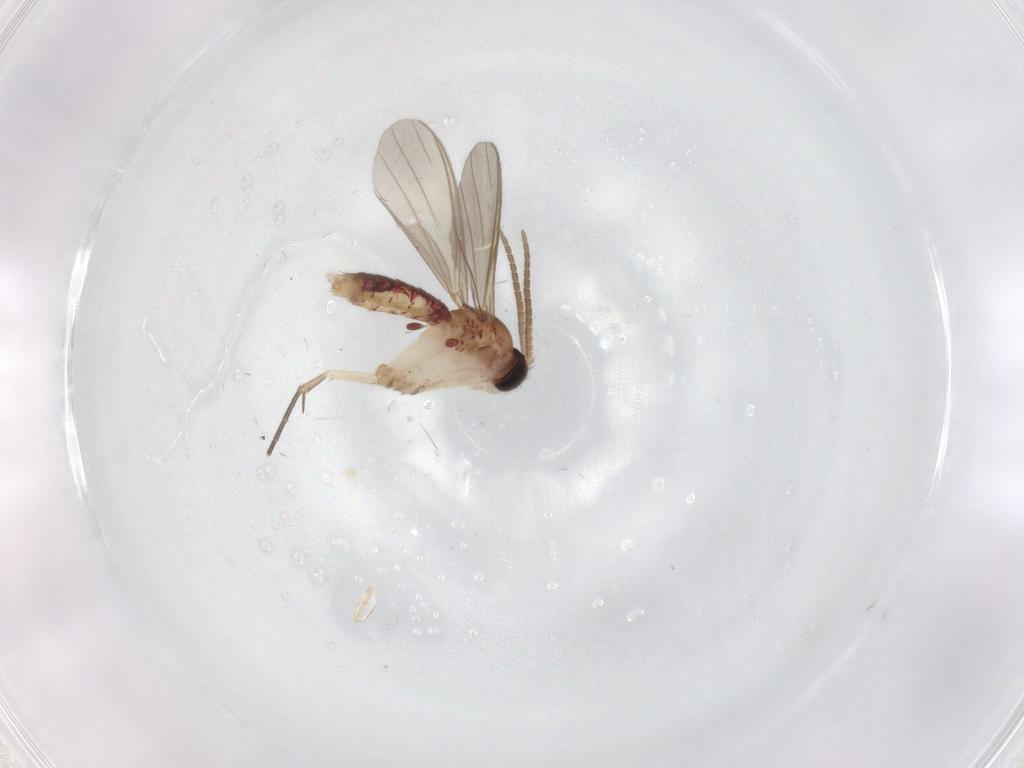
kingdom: Animalia
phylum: Arthropoda
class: Insecta
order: Diptera
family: Mycetophilidae
